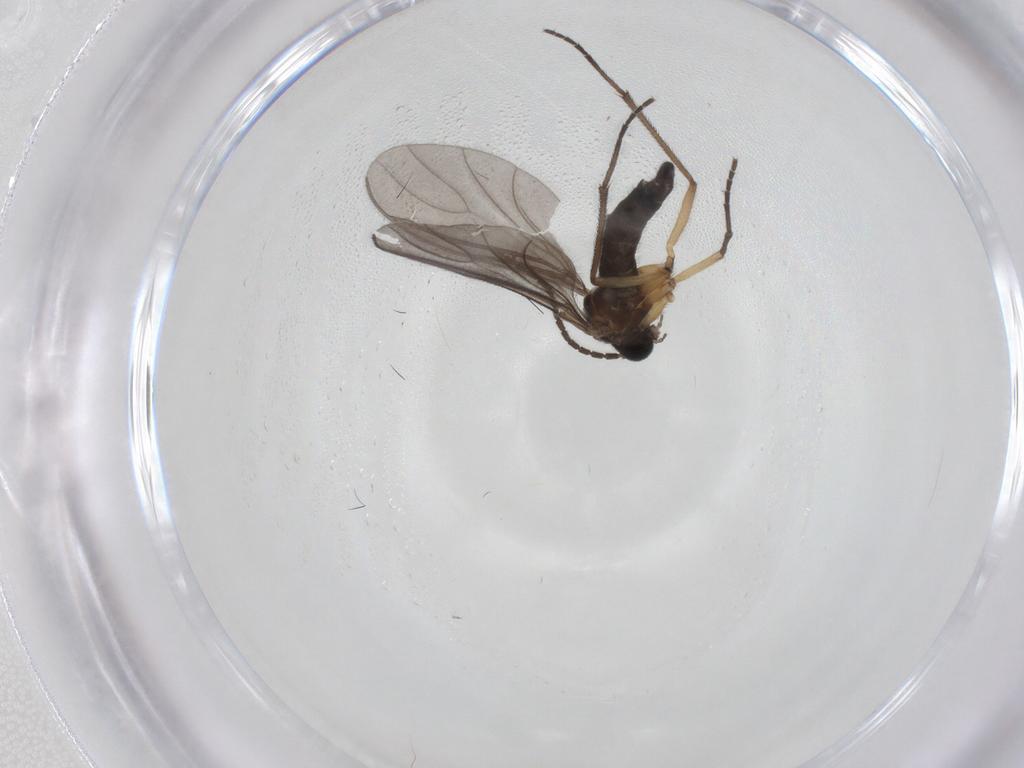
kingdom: Animalia
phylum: Arthropoda
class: Insecta
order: Diptera
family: Sciaridae
